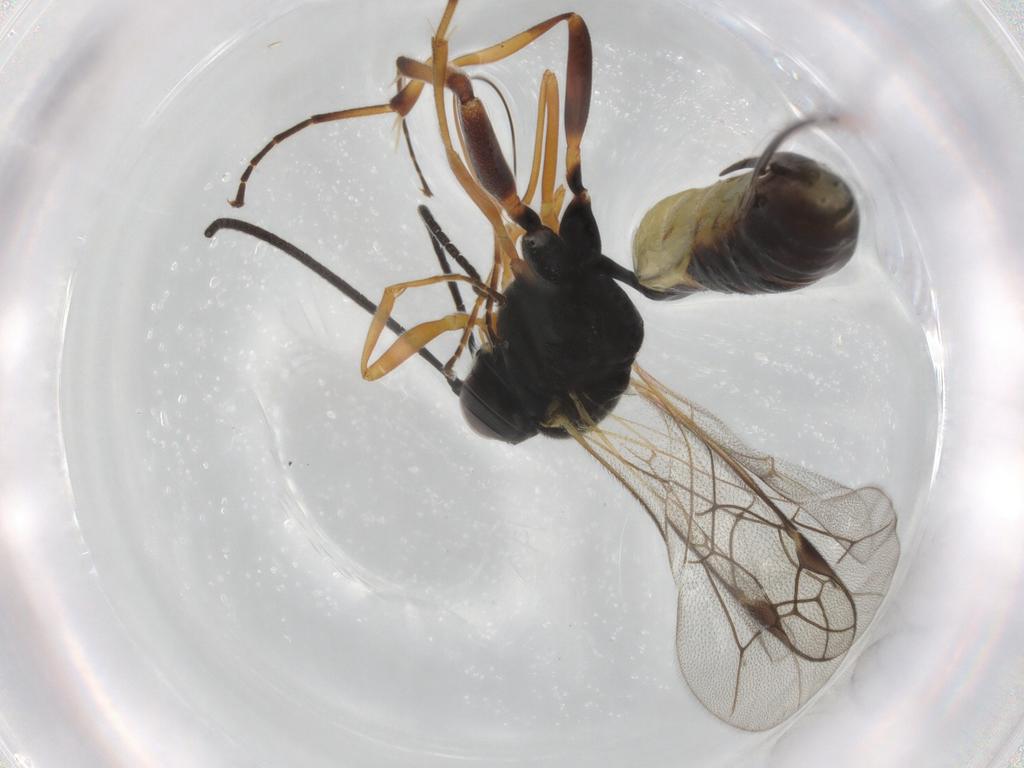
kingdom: Animalia
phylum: Arthropoda
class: Insecta
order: Hymenoptera
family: Ichneumonidae
